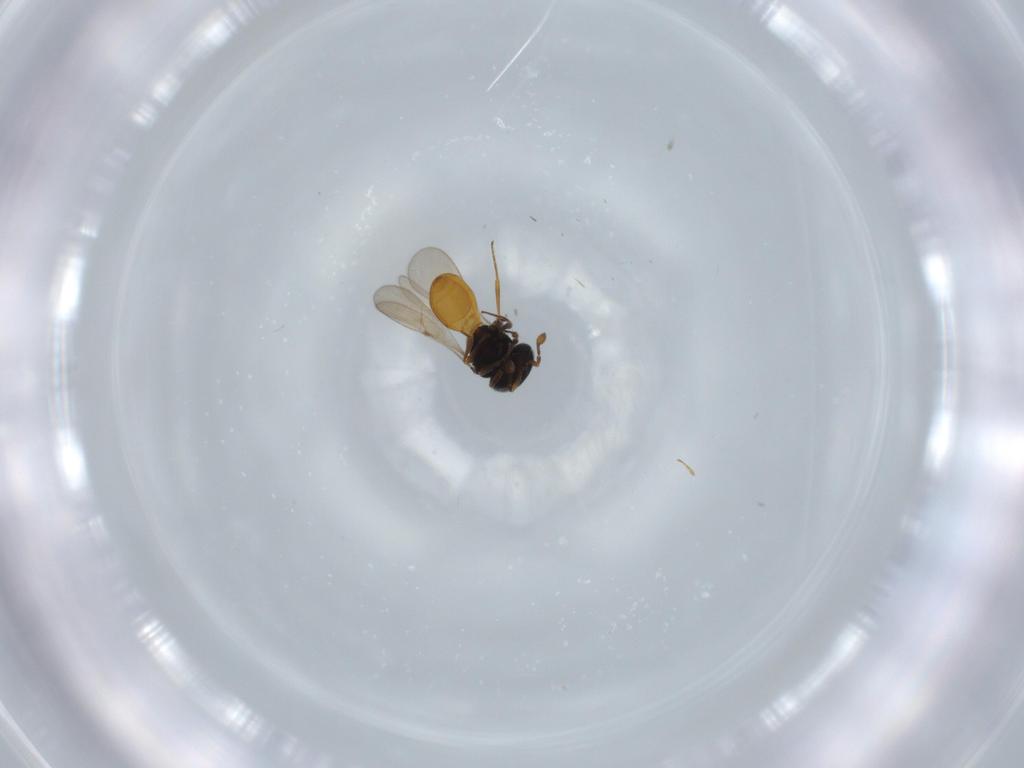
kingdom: Animalia
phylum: Arthropoda
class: Insecta
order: Hymenoptera
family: Scelionidae
